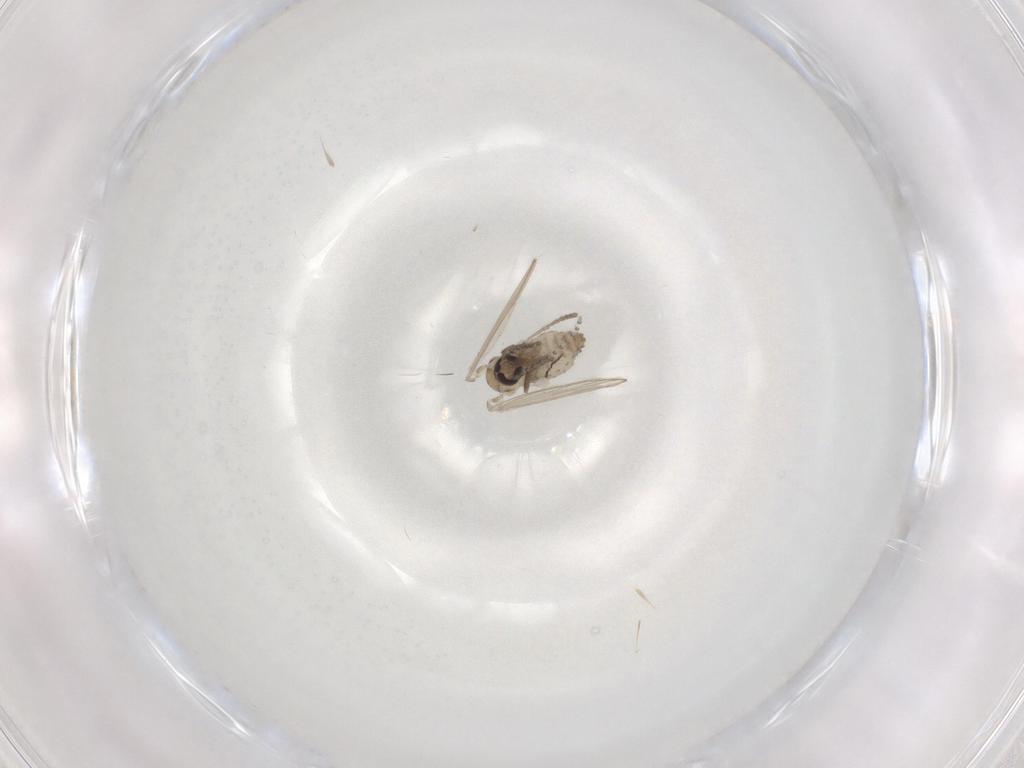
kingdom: Animalia
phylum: Arthropoda
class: Insecta
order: Diptera
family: Psychodidae
